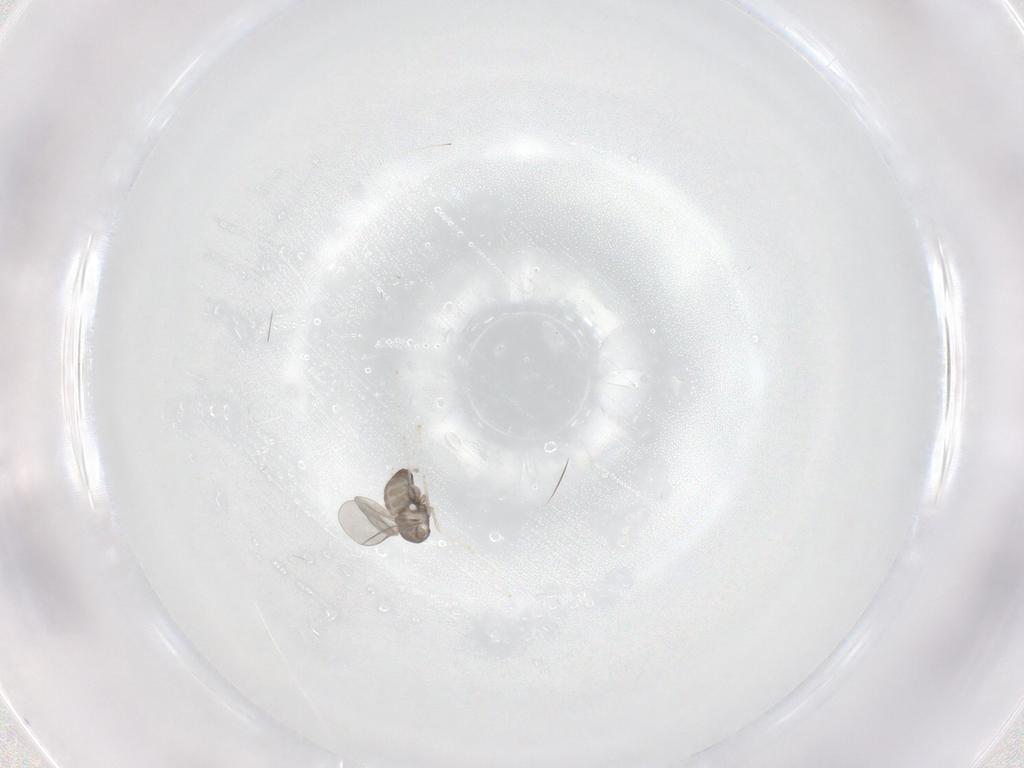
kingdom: Animalia
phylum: Arthropoda
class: Insecta
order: Diptera
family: Cecidomyiidae
